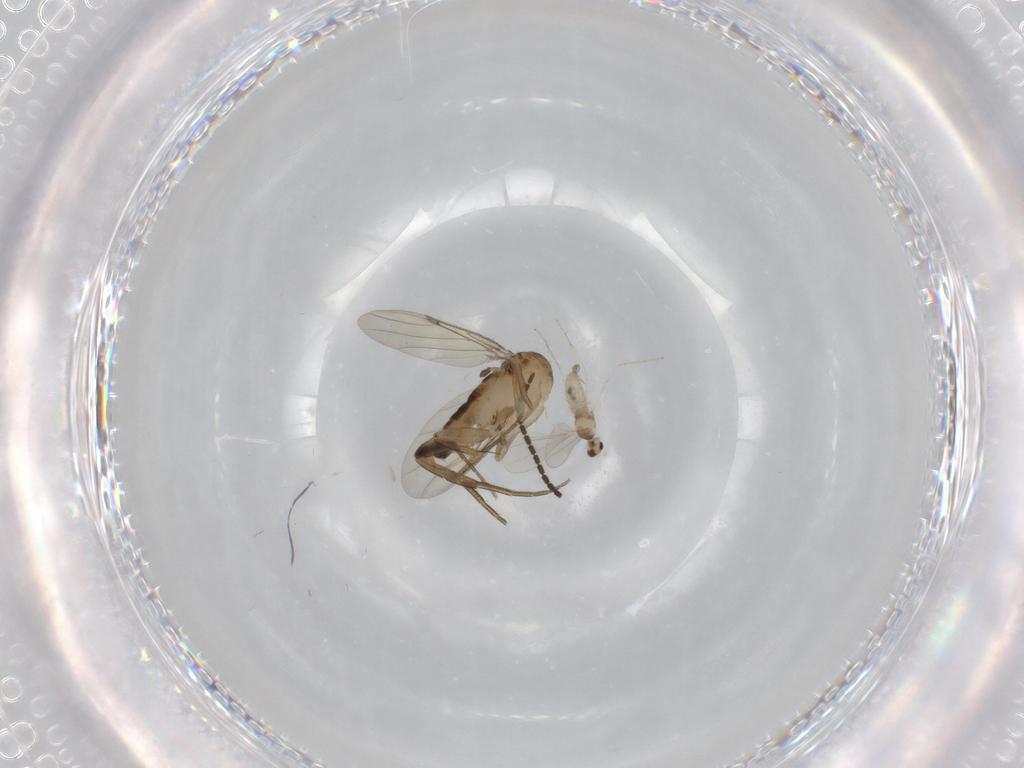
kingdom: Animalia
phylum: Arthropoda
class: Insecta
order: Diptera
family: Phoridae
